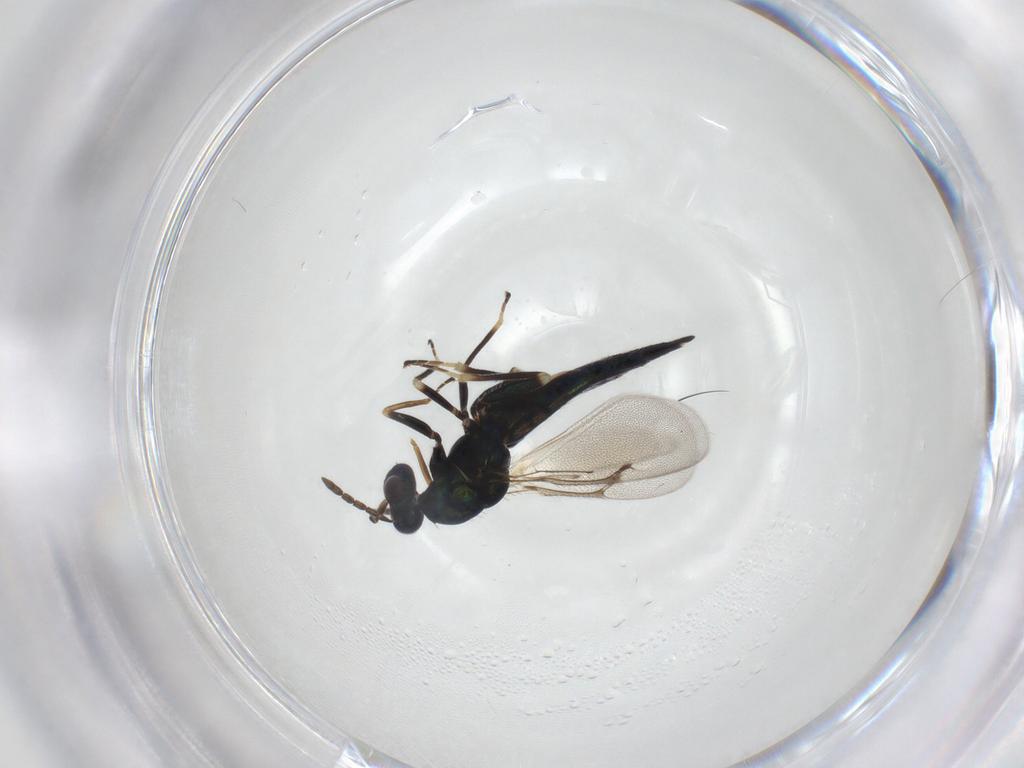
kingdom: Animalia
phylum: Arthropoda
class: Insecta
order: Hymenoptera
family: Eulophidae
